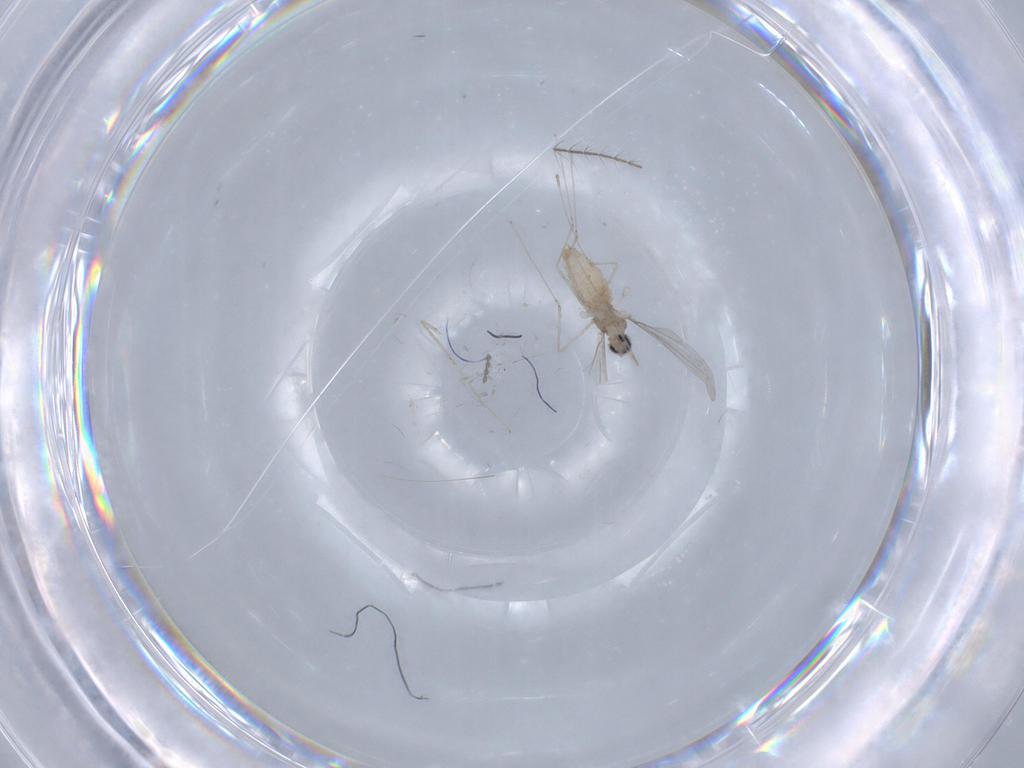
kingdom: Animalia
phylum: Arthropoda
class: Insecta
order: Diptera
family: Culicidae
